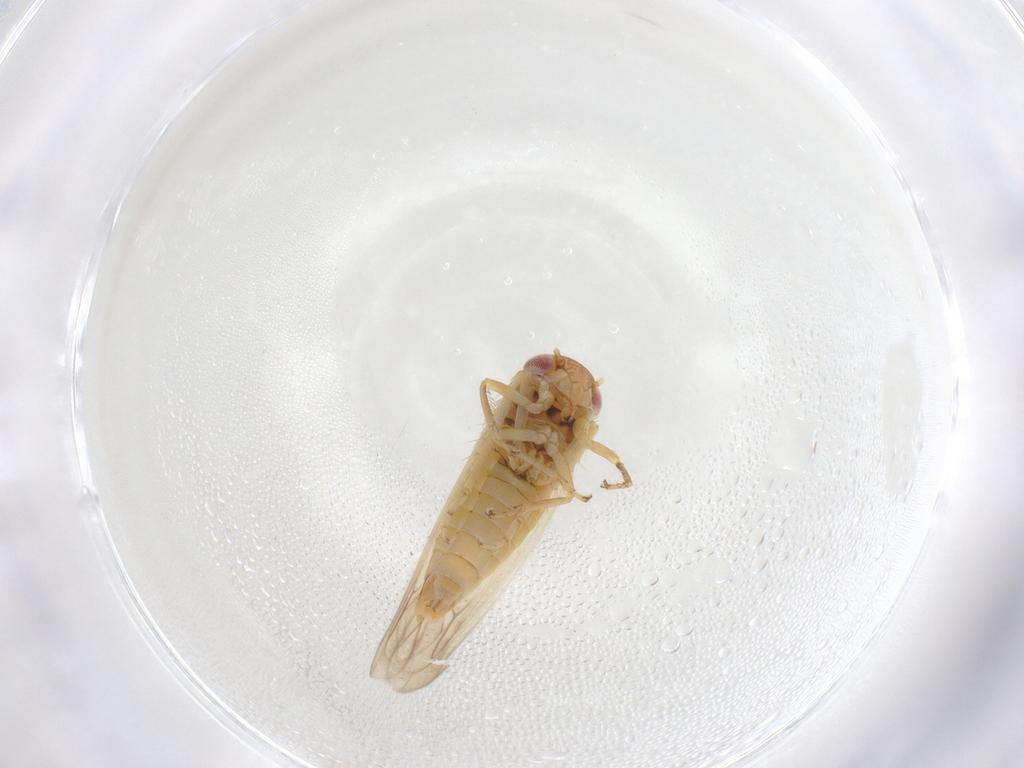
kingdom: Animalia
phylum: Arthropoda
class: Insecta
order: Hemiptera
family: Cicadellidae
